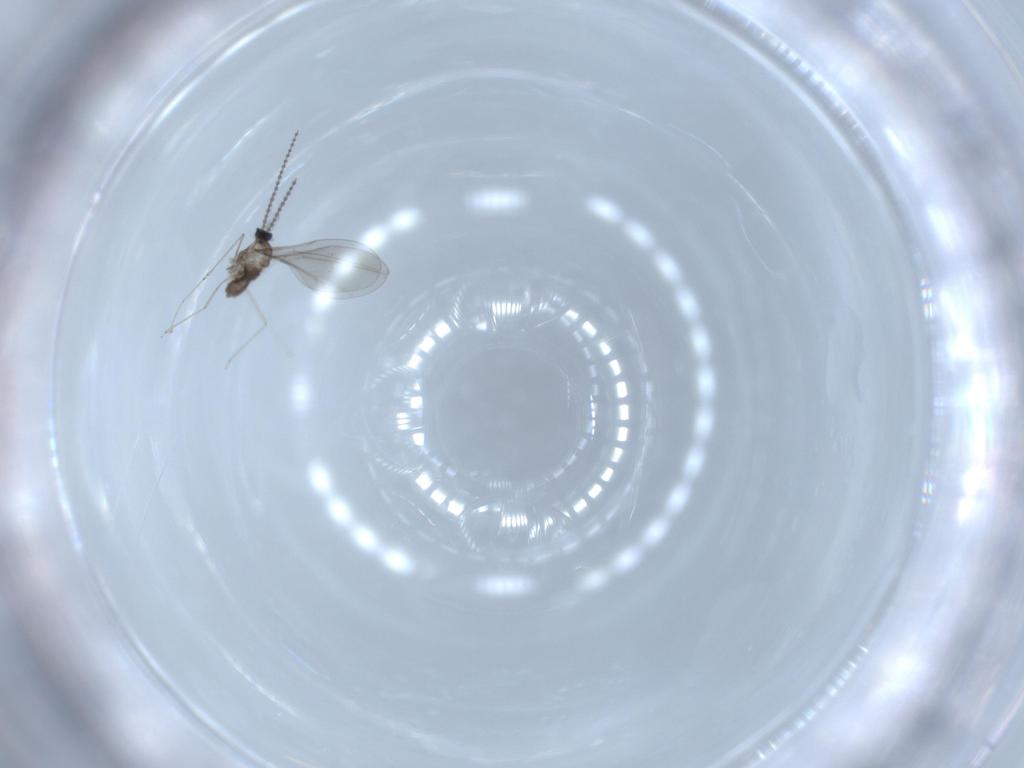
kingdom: Animalia
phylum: Arthropoda
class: Insecta
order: Diptera
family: Cecidomyiidae
